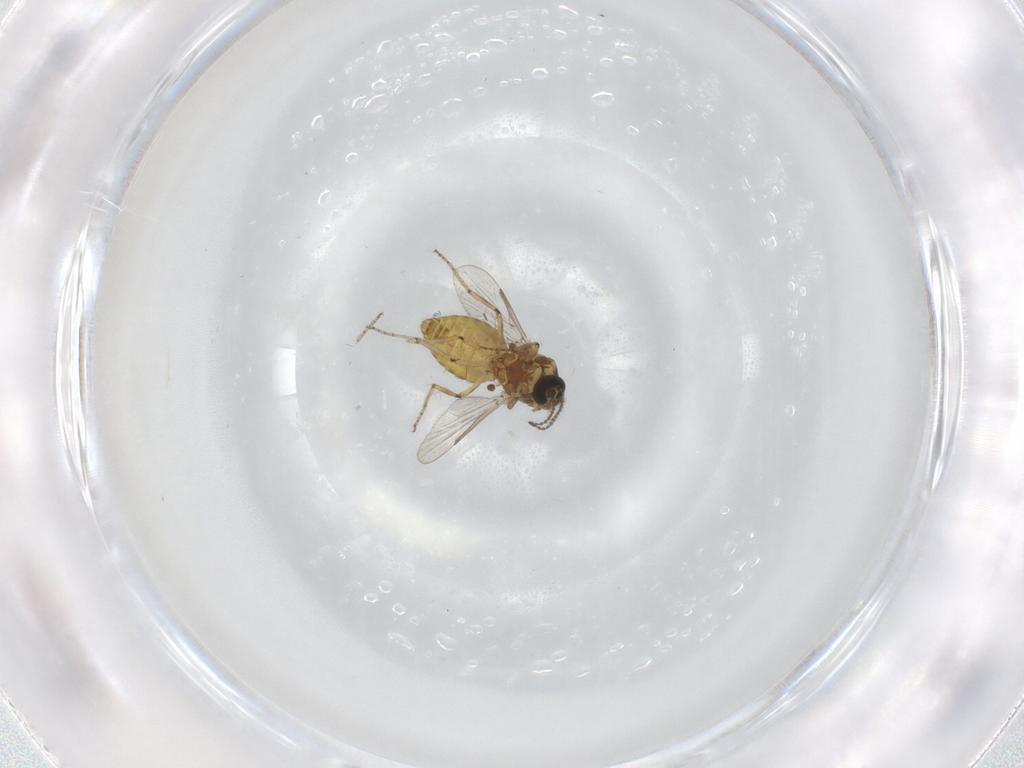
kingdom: Animalia
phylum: Arthropoda
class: Insecta
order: Diptera
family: Ceratopogonidae
